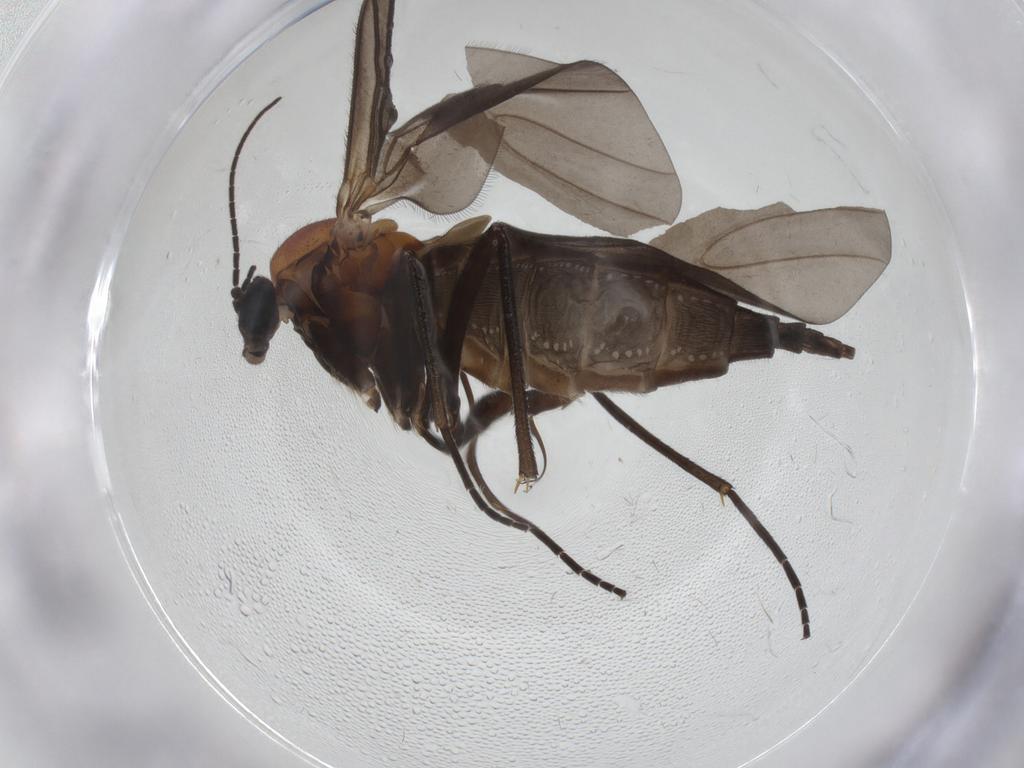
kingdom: Animalia
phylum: Arthropoda
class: Insecta
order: Diptera
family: Sciaridae
